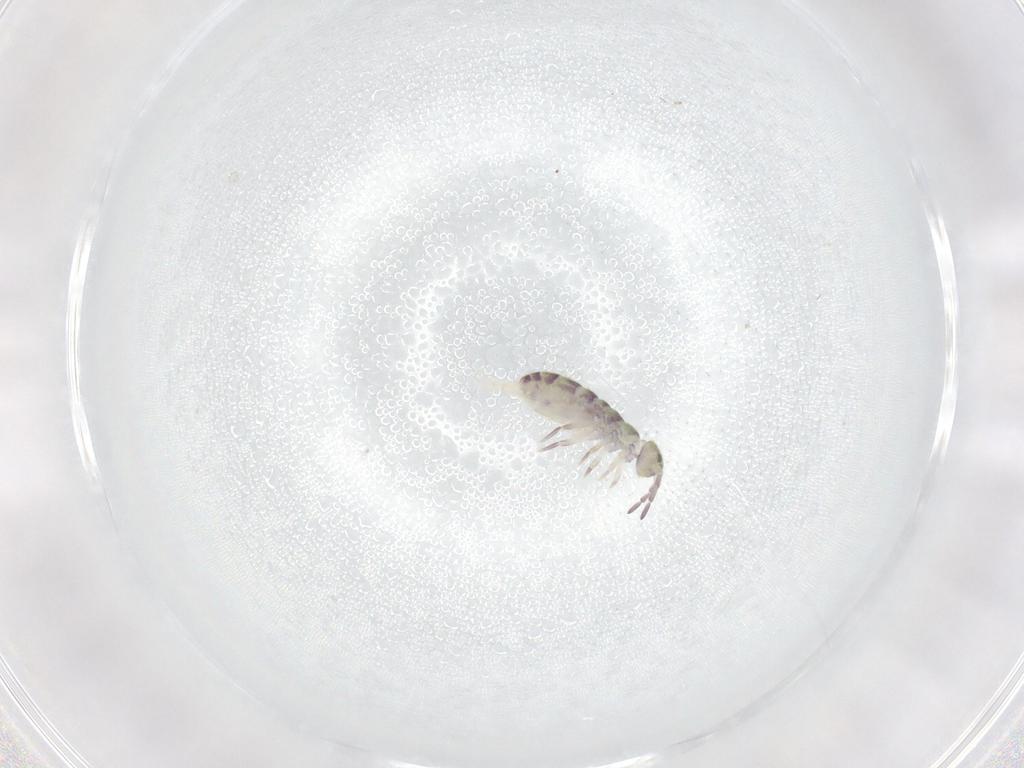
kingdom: Animalia
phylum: Arthropoda
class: Collembola
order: Entomobryomorpha
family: Isotomidae
